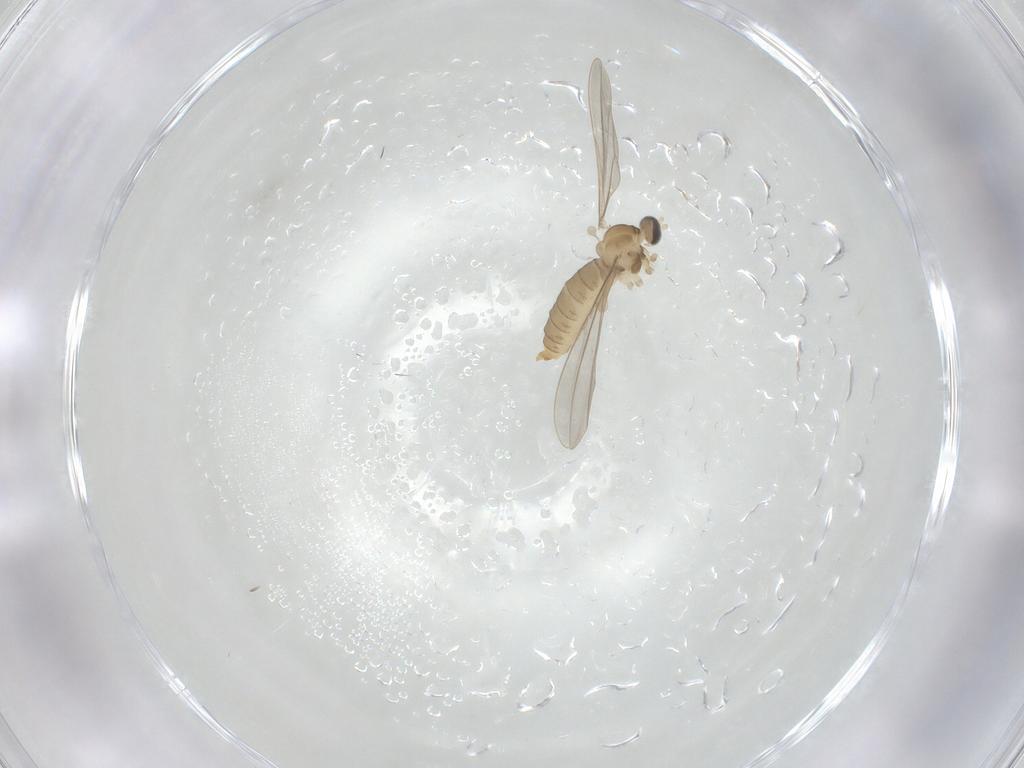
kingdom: Animalia
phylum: Arthropoda
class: Insecta
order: Diptera
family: Cecidomyiidae
